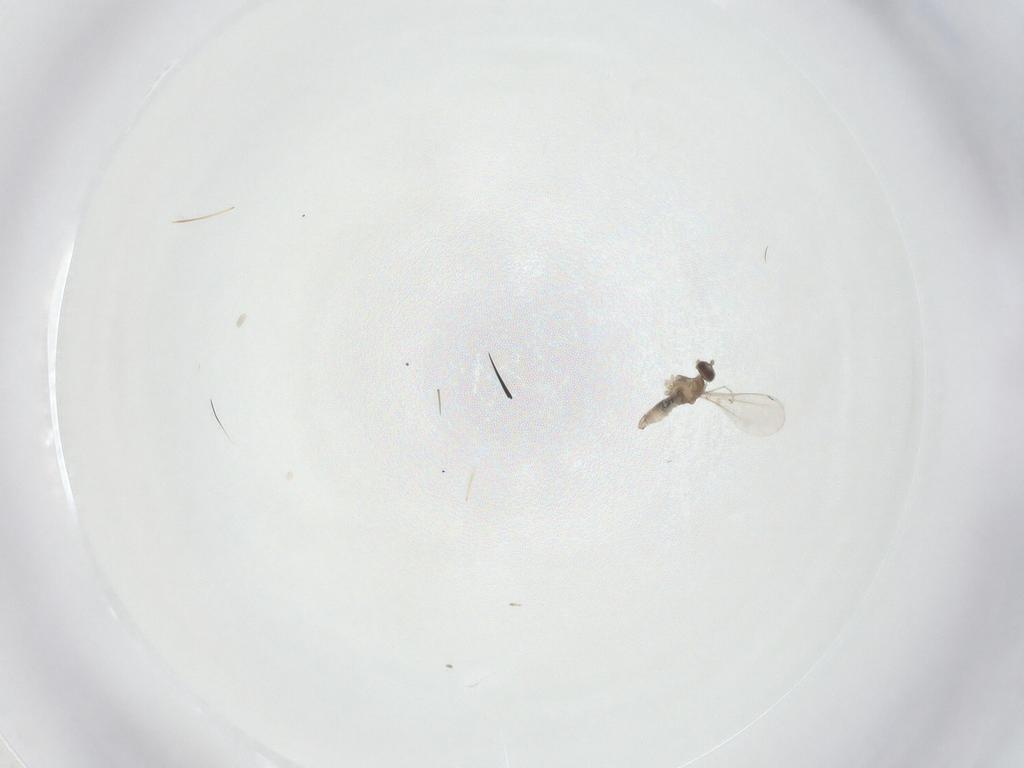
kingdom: Animalia
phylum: Arthropoda
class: Insecta
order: Diptera
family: Cecidomyiidae
